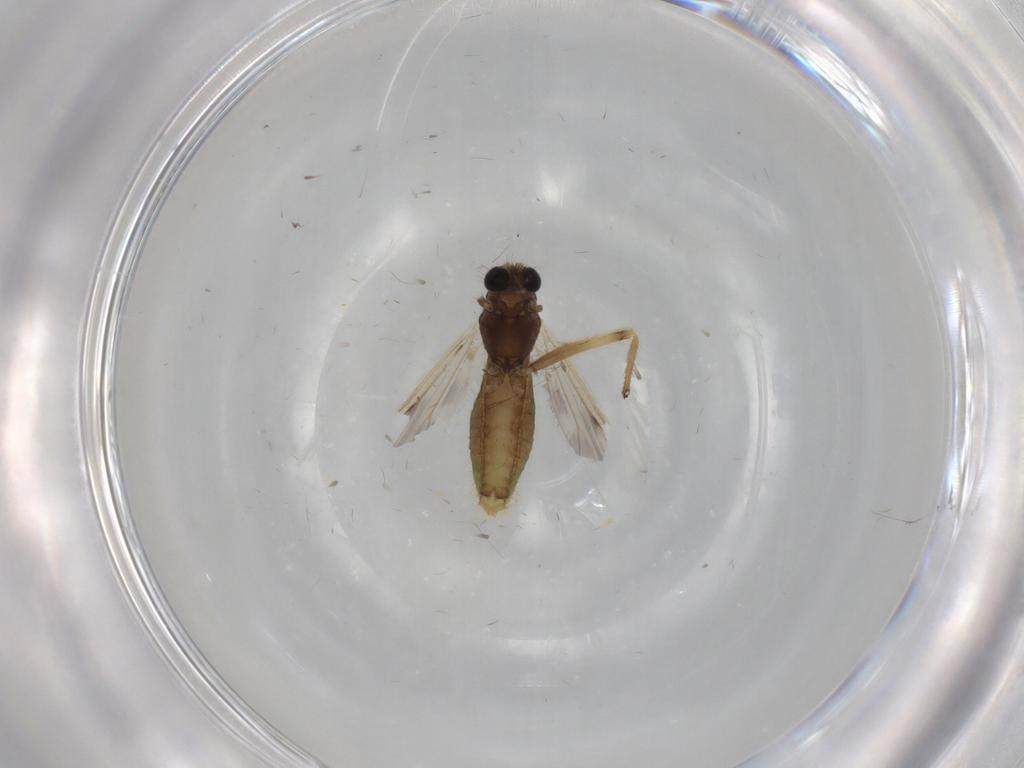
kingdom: Animalia
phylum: Arthropoda
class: Insecta
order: Diptera
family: Chironomidae
